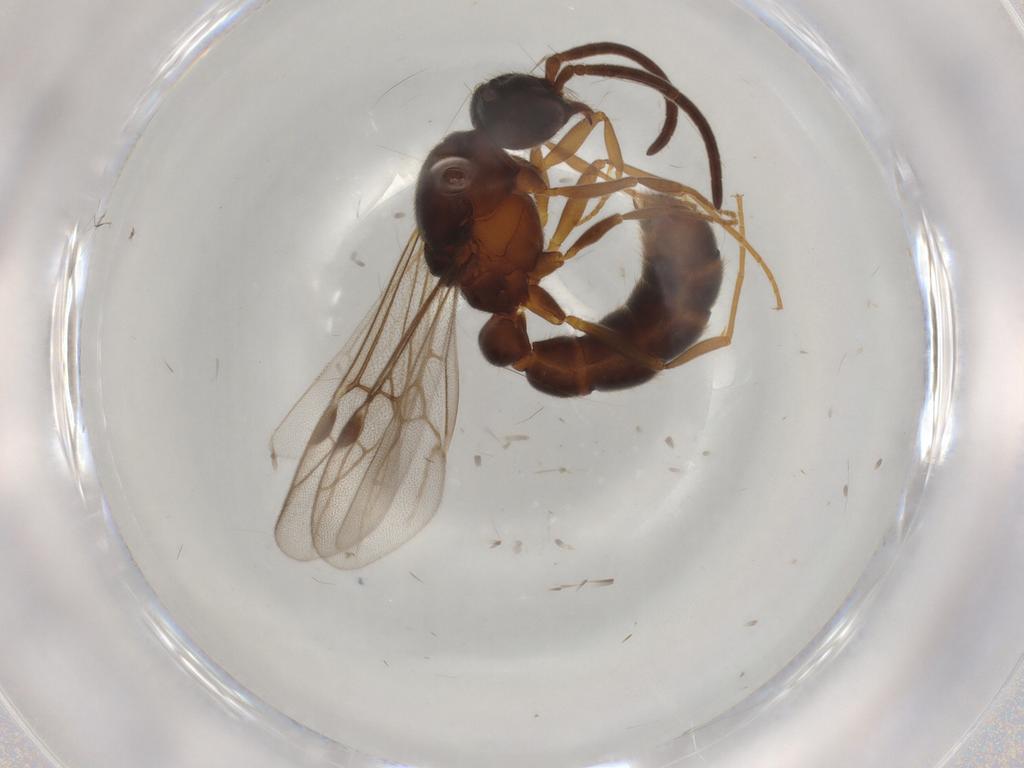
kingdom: Animalia
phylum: Arthropoda
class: Insecta
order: Hymenoptera
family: Formicidae
